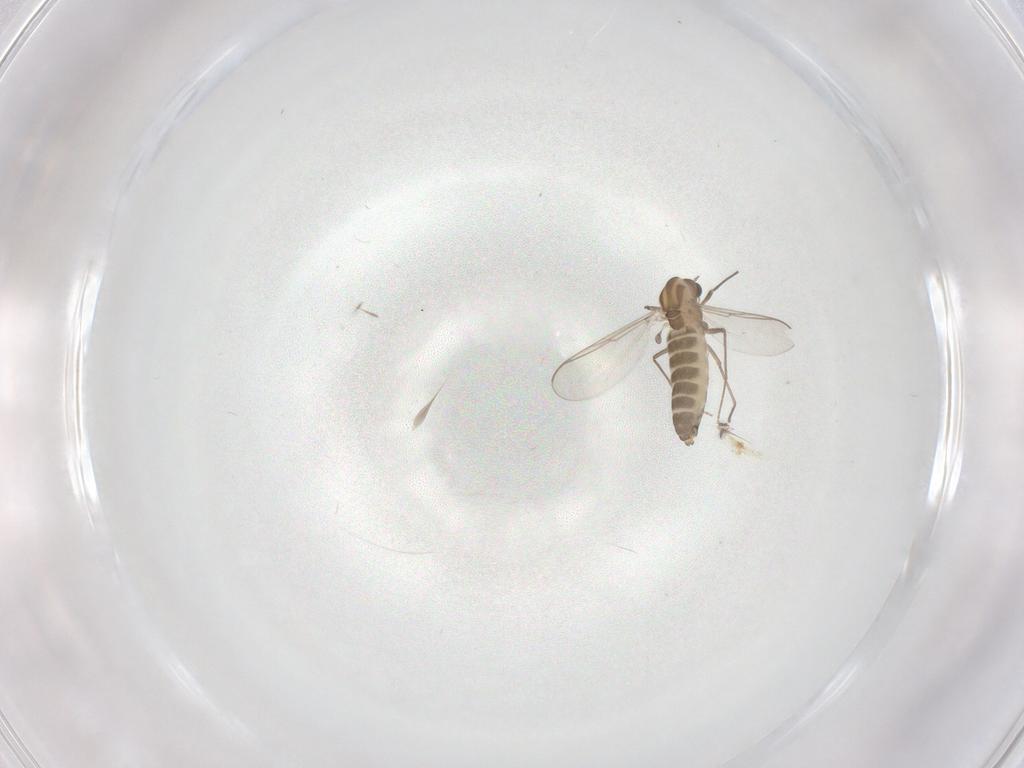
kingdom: Animalia
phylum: Arthropoda
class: Insecta
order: Diptera
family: Chironomidae
